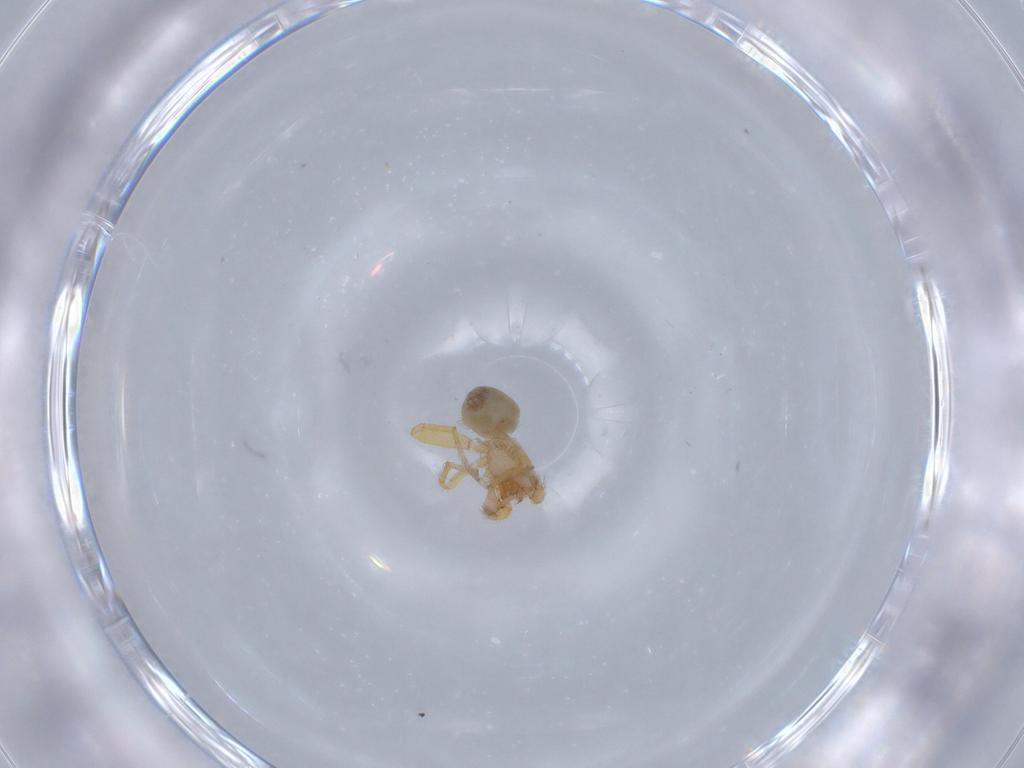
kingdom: Animalia
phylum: Arthropoda
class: Arachnida
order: Araneae
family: Oonopidae
